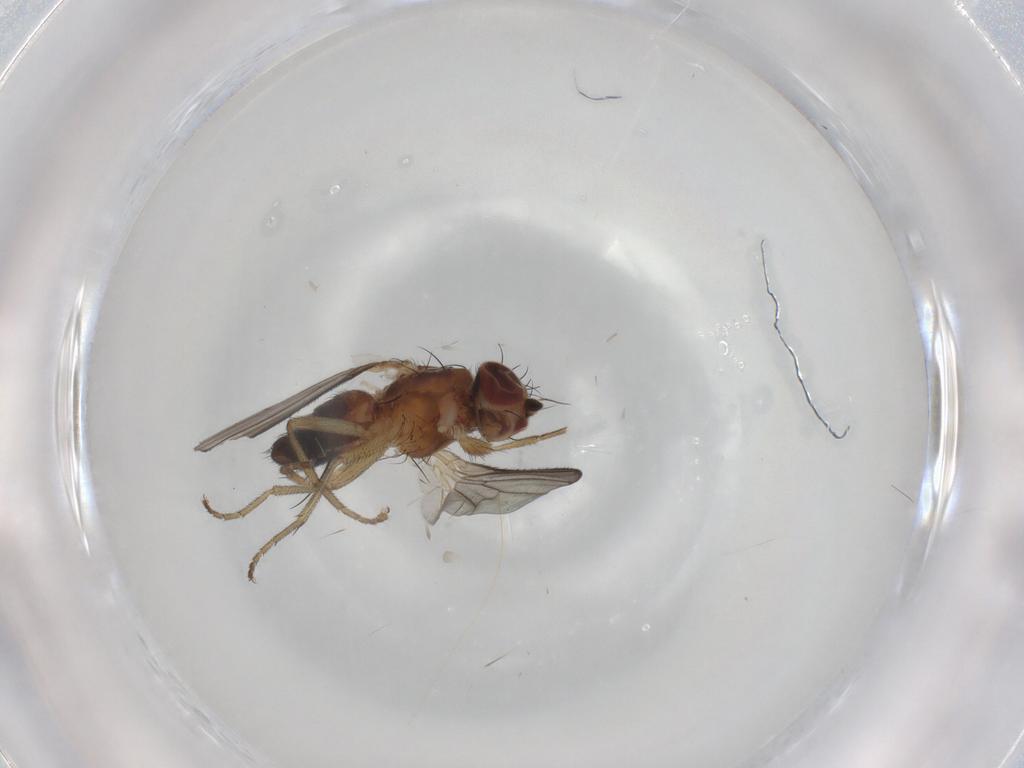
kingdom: Animalia
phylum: Arthropoda
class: Insecta
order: Diptera
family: Heleomyzidae
